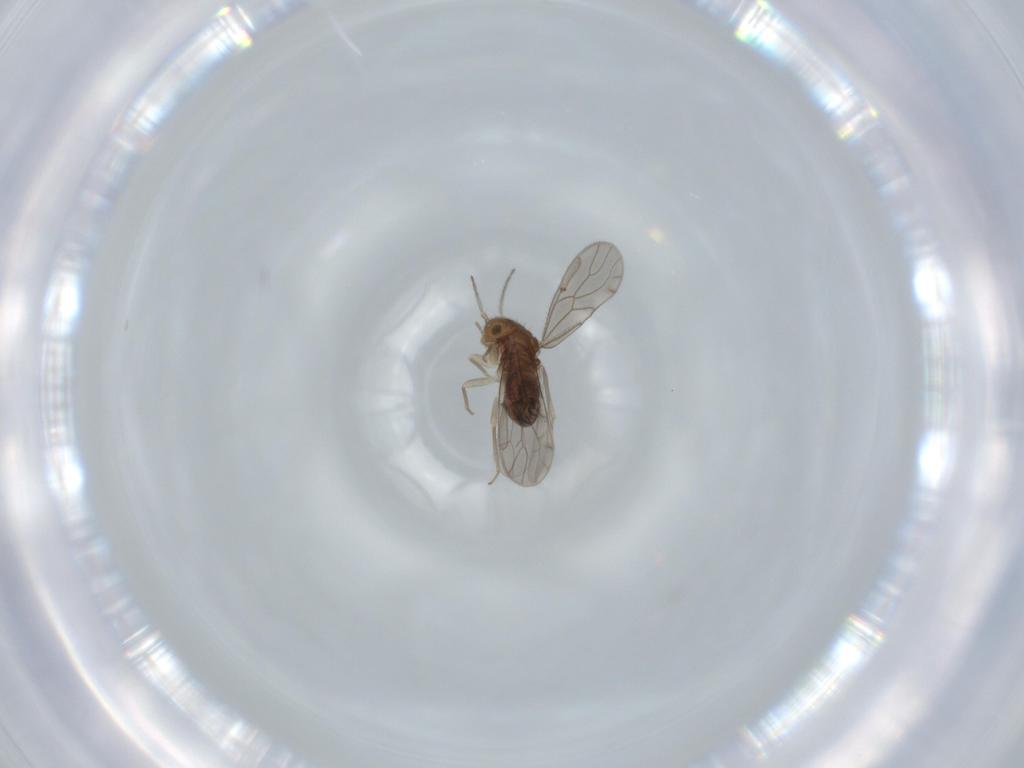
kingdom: Animalia
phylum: Arthropoda
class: Insecta
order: Psocodea
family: Ectopsocidae
